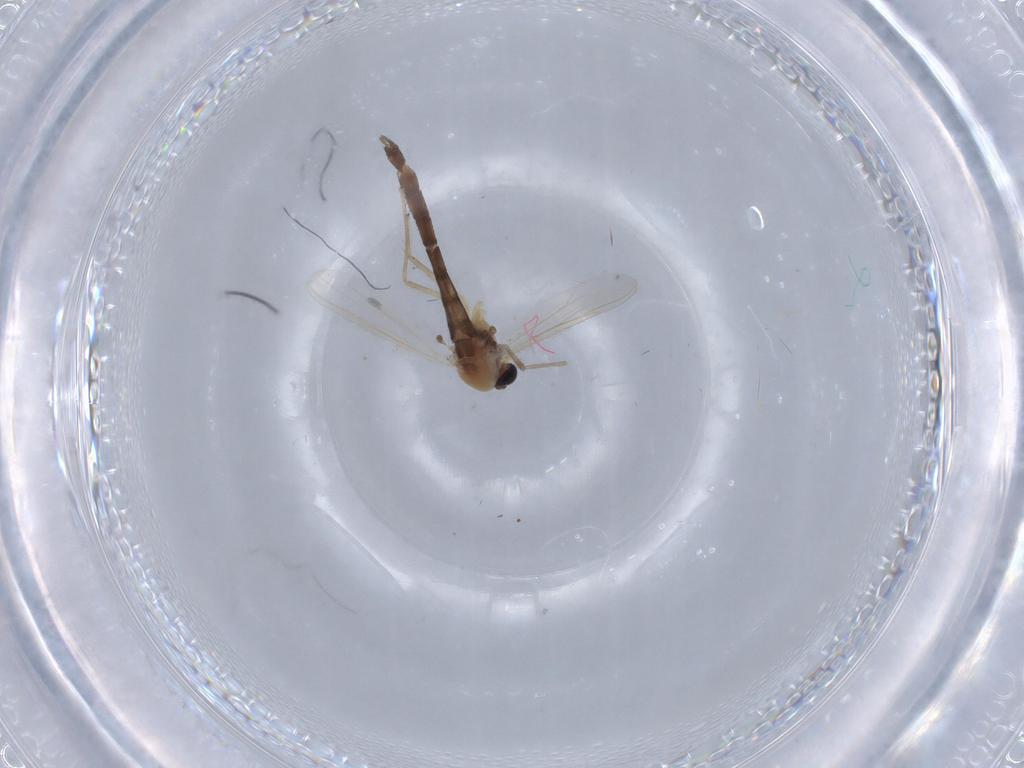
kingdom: Animalia
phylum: Arthropoda
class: Insecta
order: Diptera
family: Chironomidae
